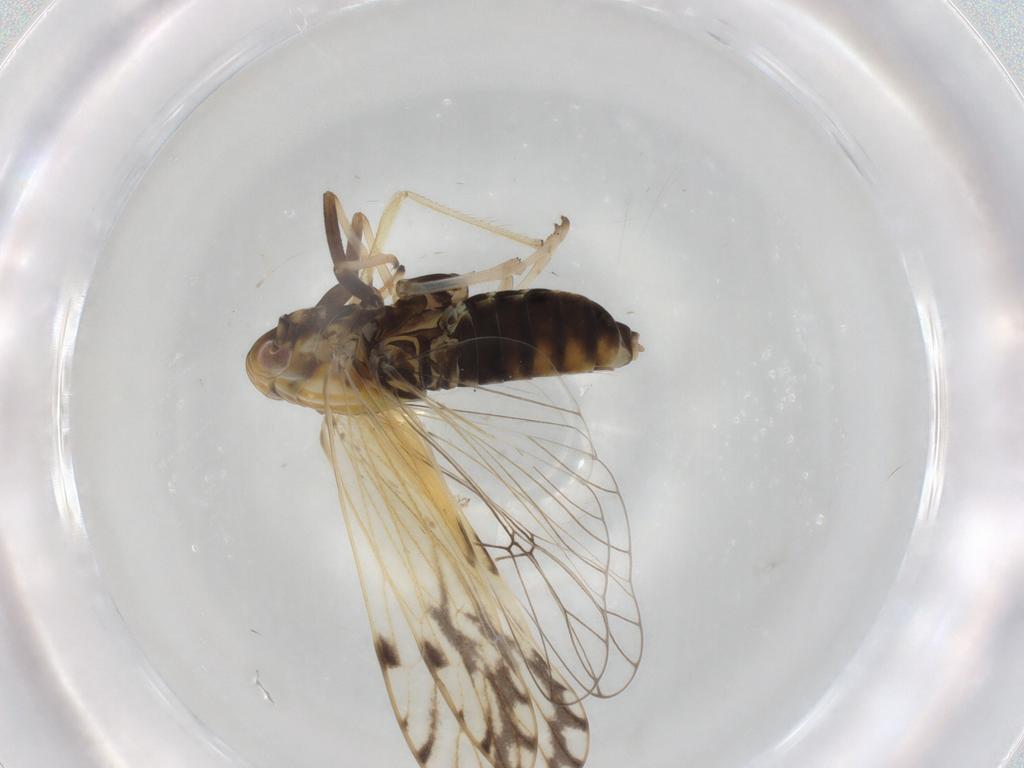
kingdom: Animalia
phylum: Arthropoda
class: Insecta
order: Hemiptera
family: Delphacidae
